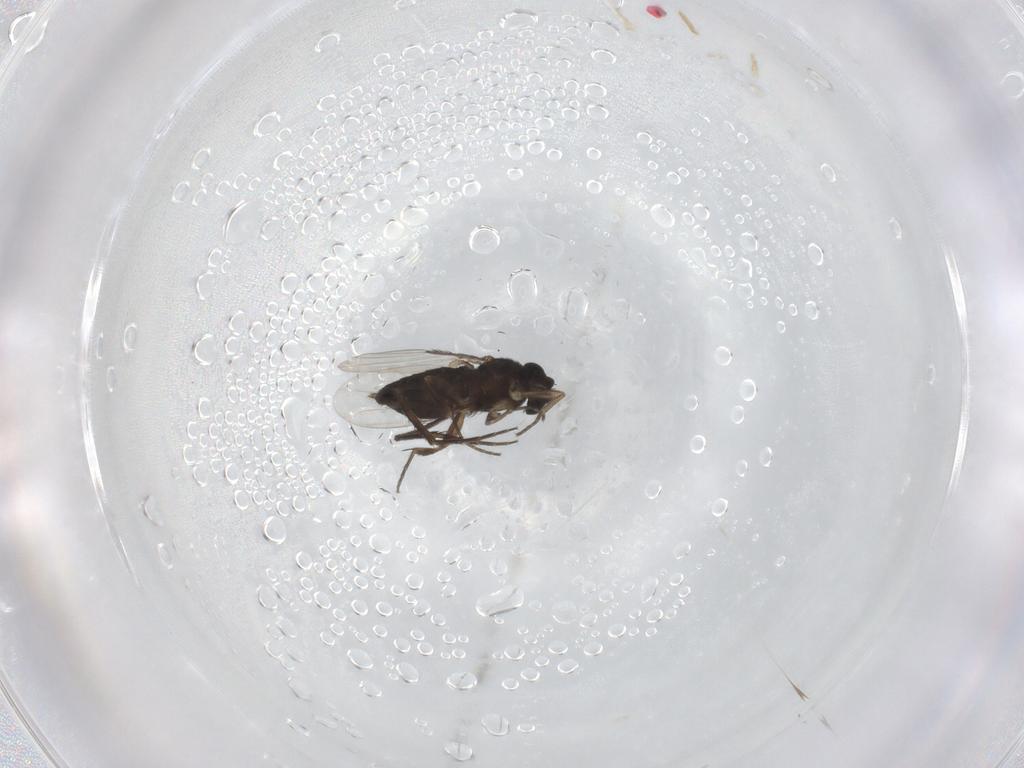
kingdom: Animalia
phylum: Arthropoda
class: Insecta
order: Diptera
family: Phoridae
